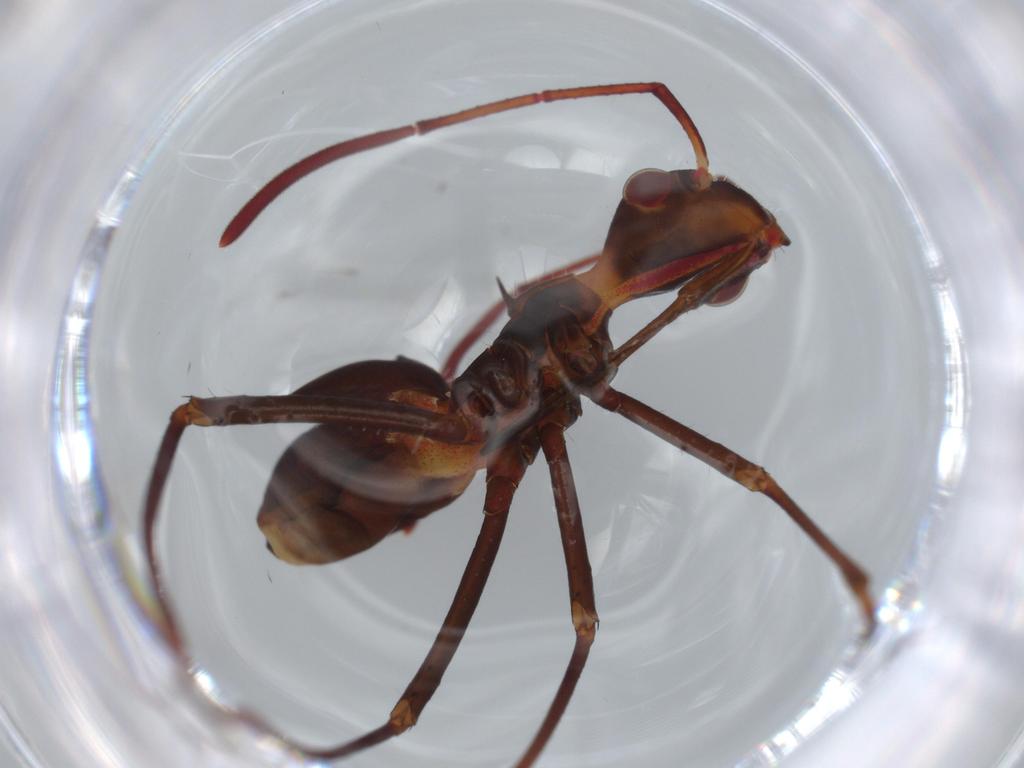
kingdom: Animalia
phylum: Arthropoda
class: Insecta
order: Hemiptera
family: Alydidae
